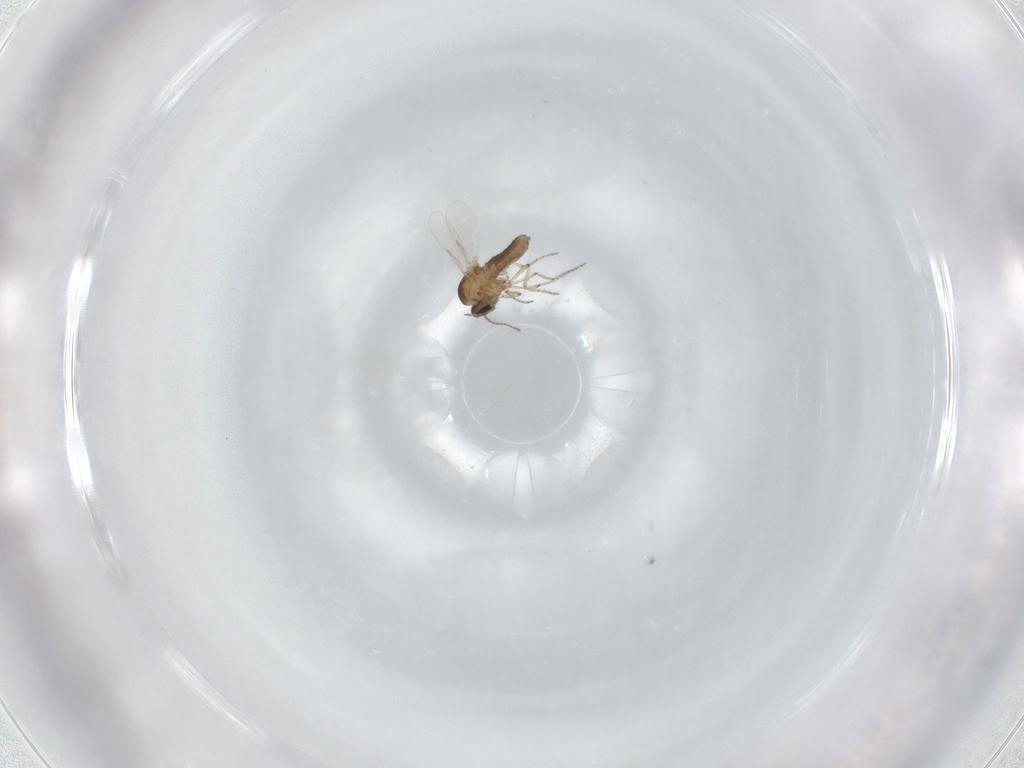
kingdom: Animalia
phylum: Arthropoda
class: Insecta
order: Diptera
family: Ceratopogonidae
